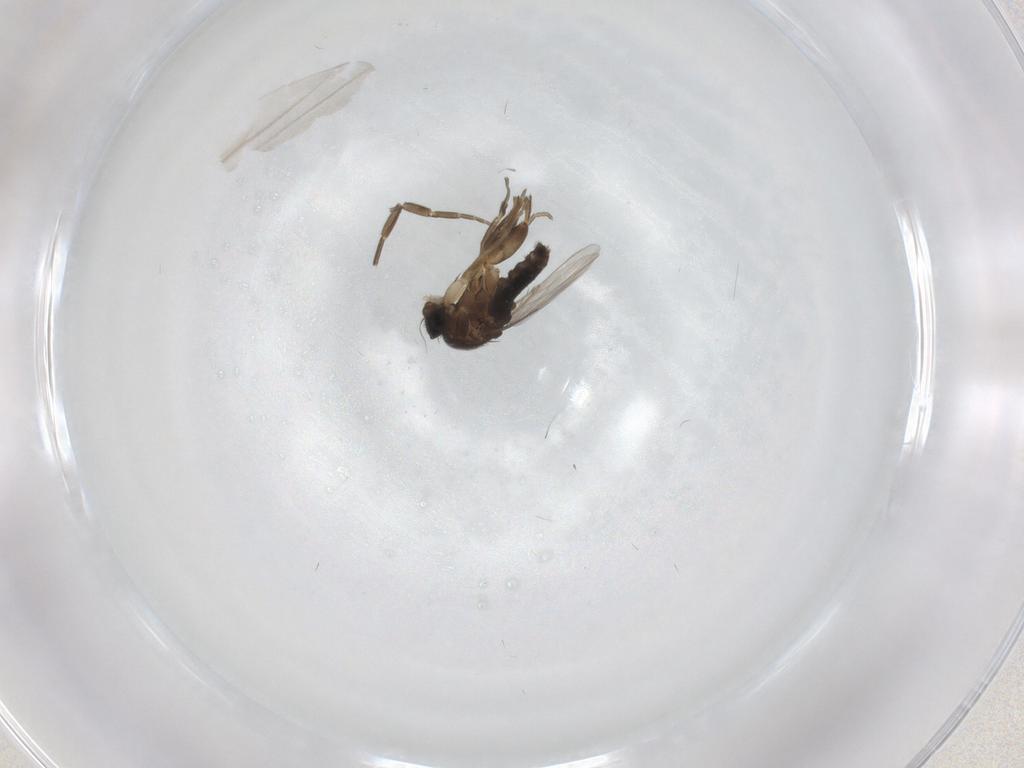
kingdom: Animalia
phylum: Arthropoda
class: Insecta
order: Diptera
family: Phoridae
